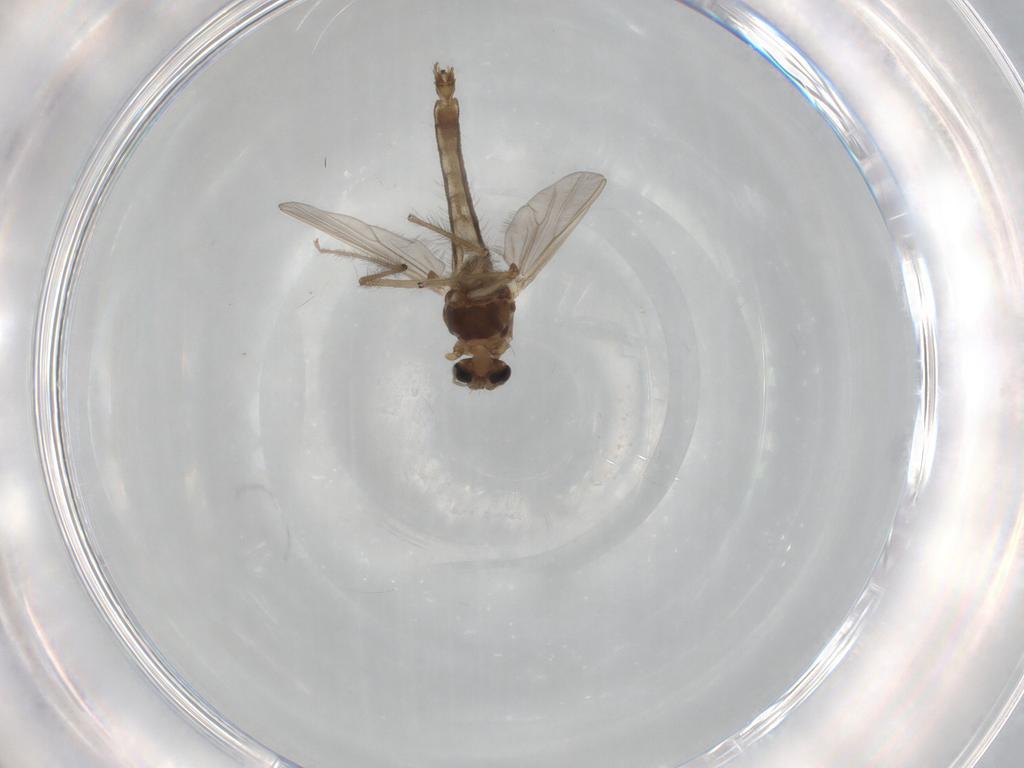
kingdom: Animalia
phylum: Arthropoda
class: Insecta
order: Diptera
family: Chironomidae
